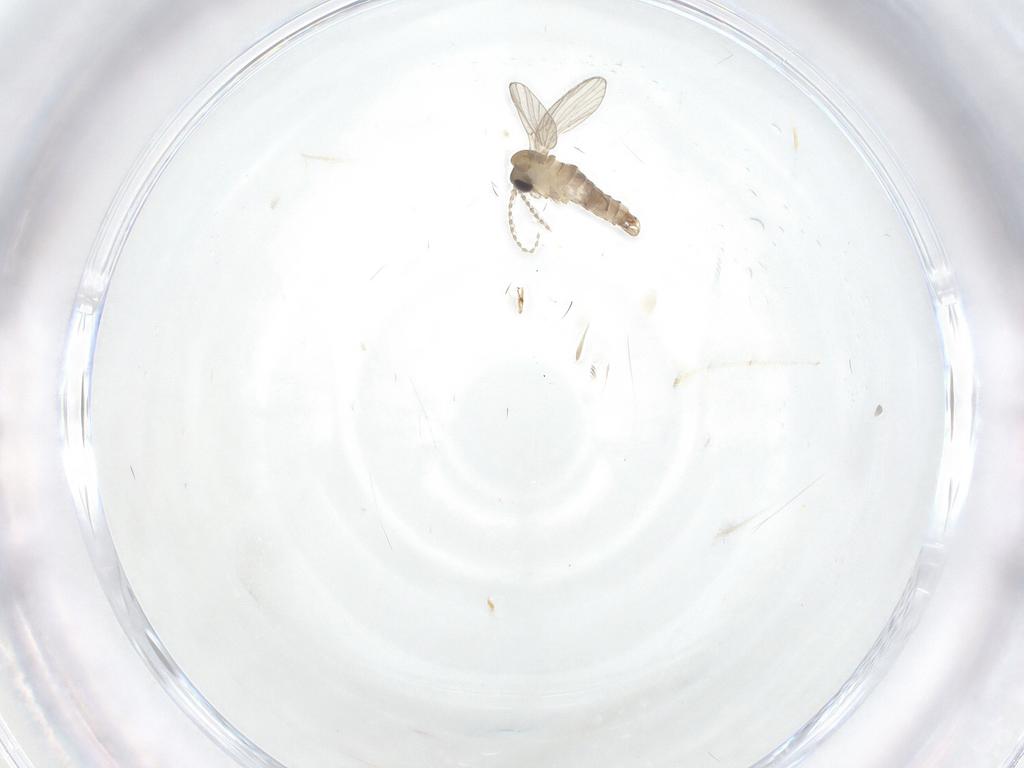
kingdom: Animalia
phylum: Arthropoda
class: Insecta
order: Diptera
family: Psychodidae
